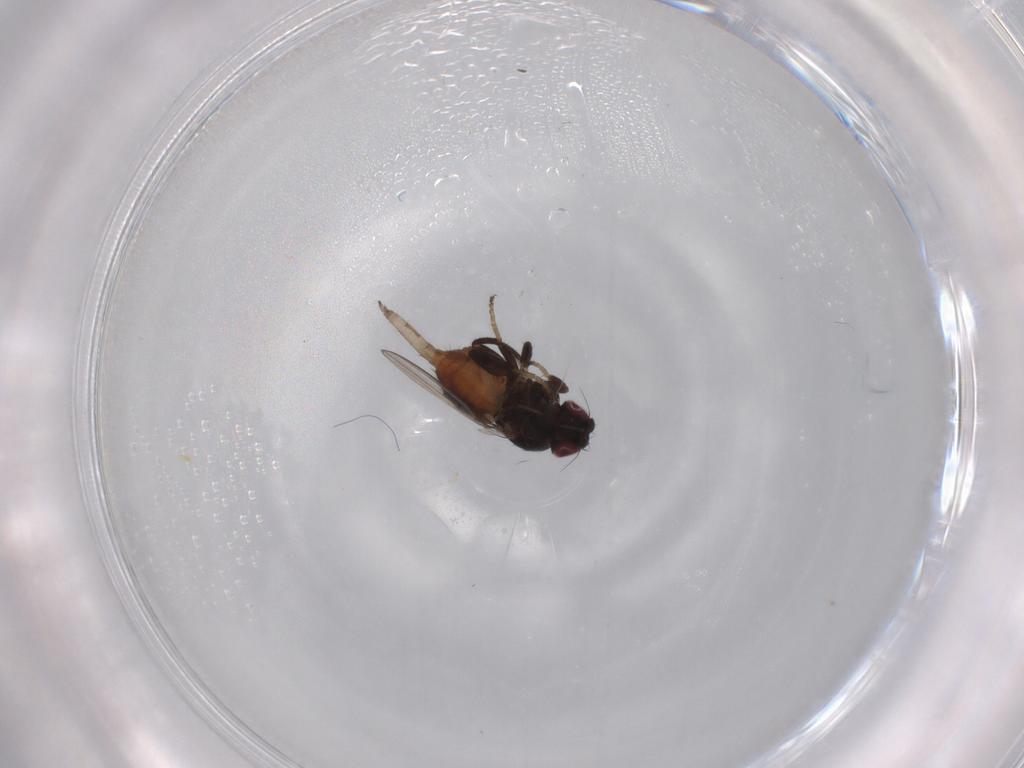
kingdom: Animalia
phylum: Arthropoda
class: Insecta
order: Diptera
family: Milichiidae
